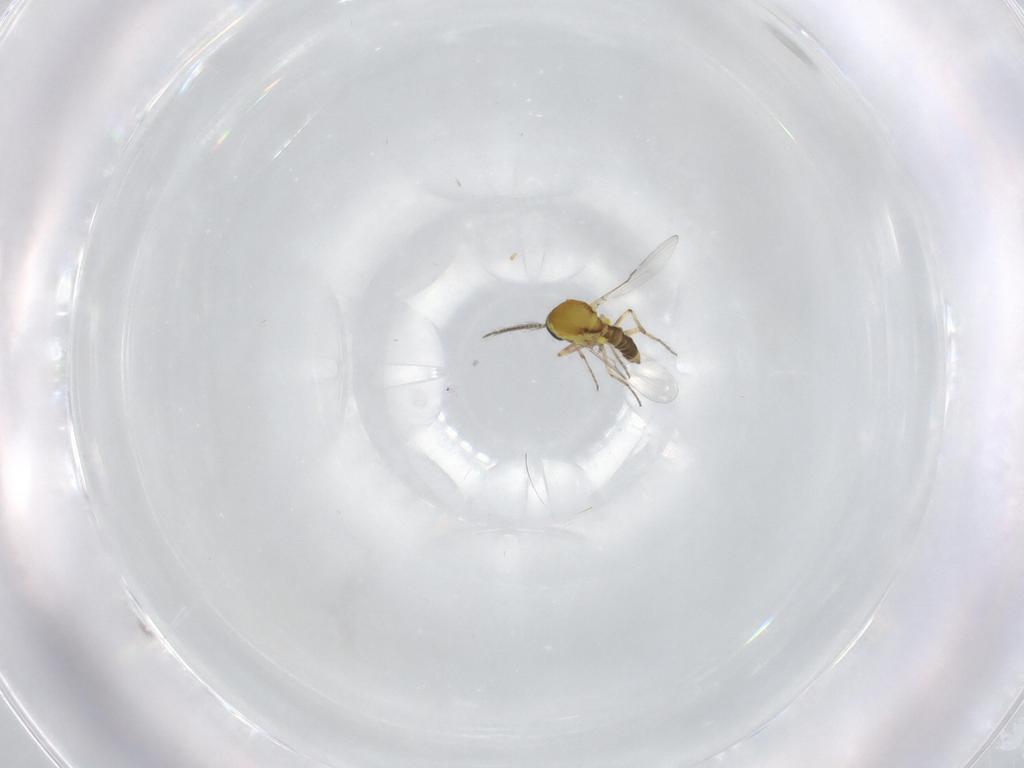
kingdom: Animalia
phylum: Arthropoda
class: Insecta
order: Diptera
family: Ceratopogonidae
